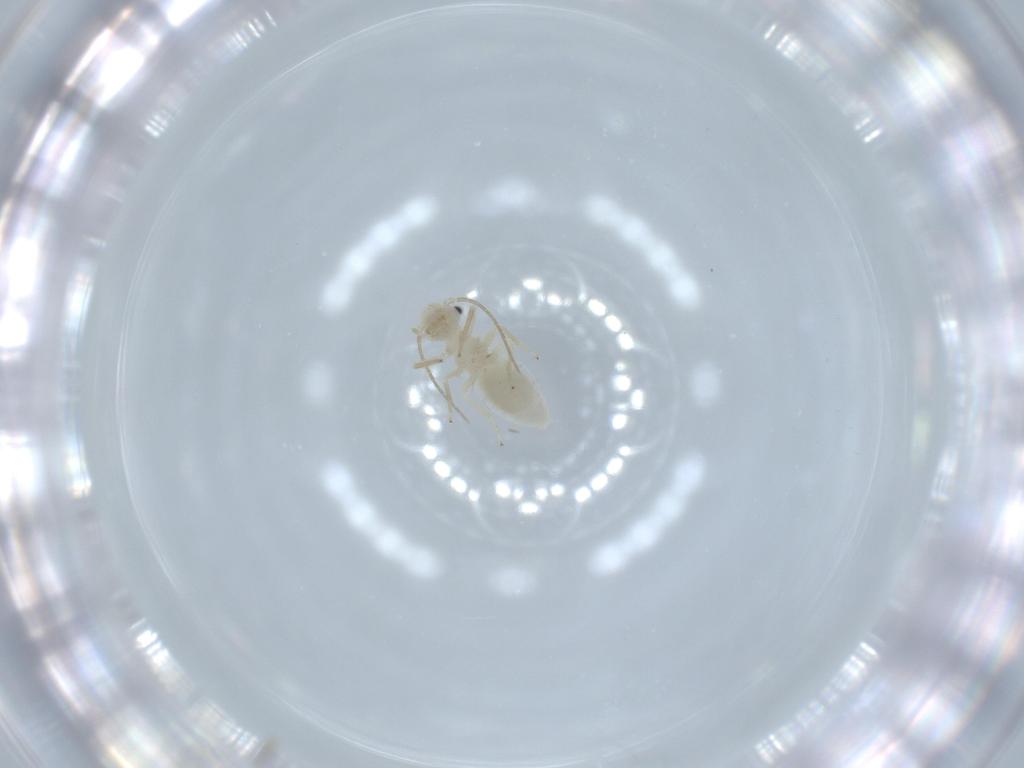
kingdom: Animalia
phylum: Arthropoda
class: Insecta
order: Psocodea
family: Caeciliusidae
